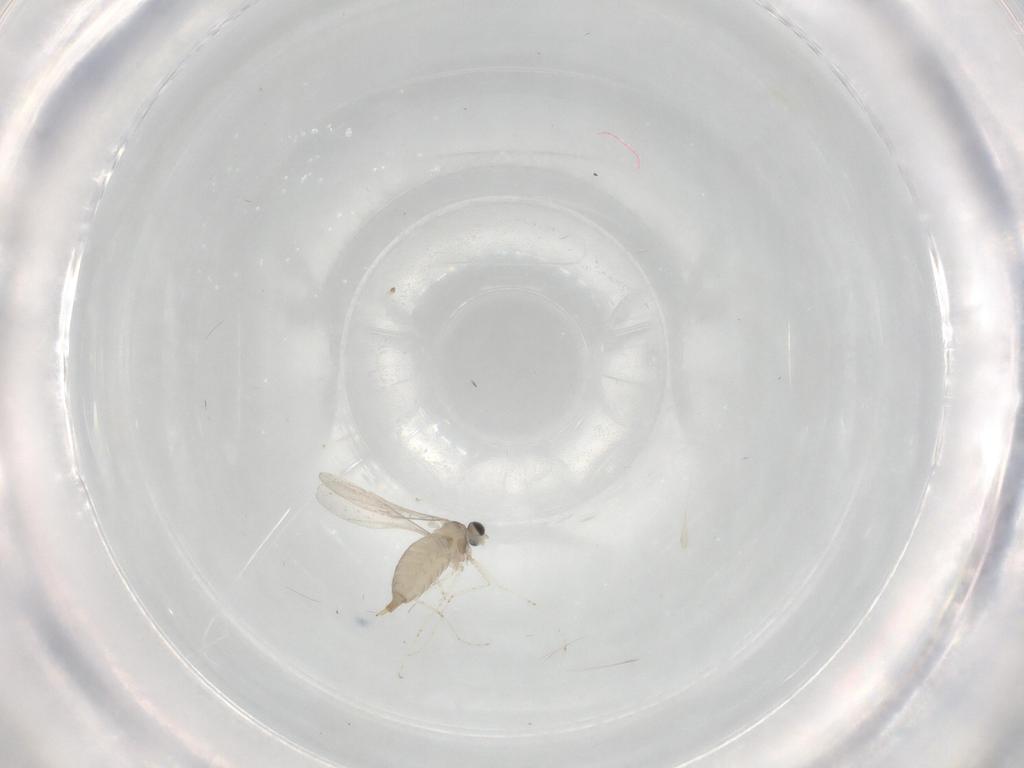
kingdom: Animalia
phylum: Arthropoda
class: Insecta
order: Diptera
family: Cecidomyiidae
